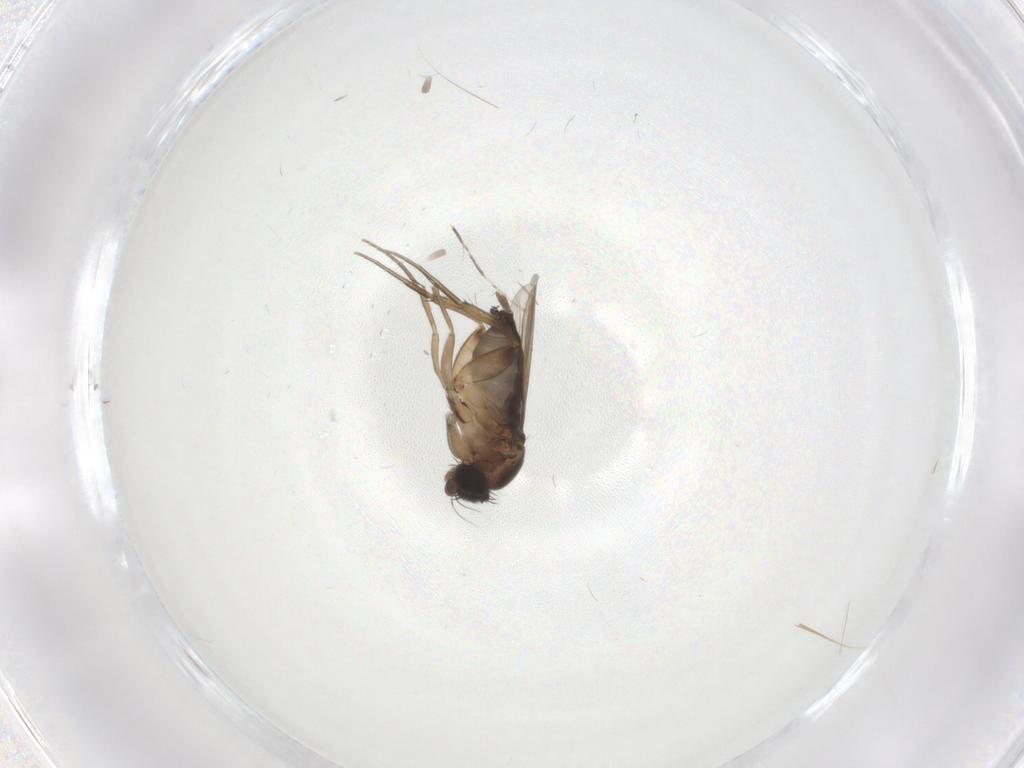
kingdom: Animalia
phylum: Arthropoda
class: Insecta
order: Diptera
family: Cecidomyiidae
